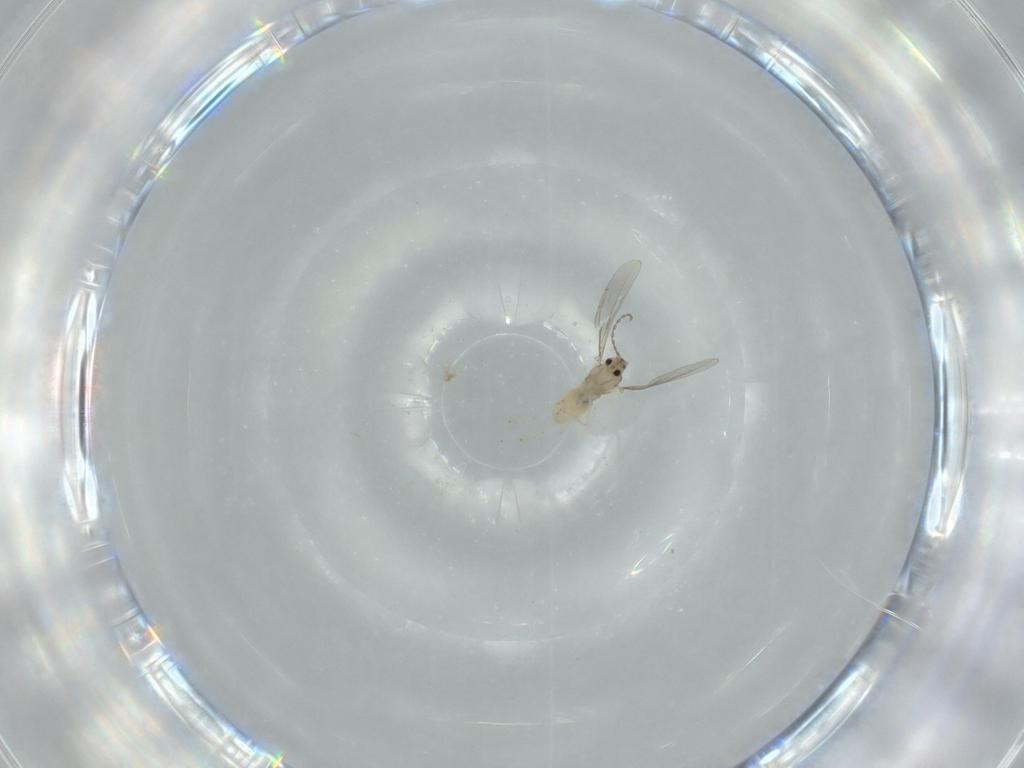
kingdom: Animalia
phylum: Arthropoda
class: Insecta
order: Diptera
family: Cecidomyiidae
